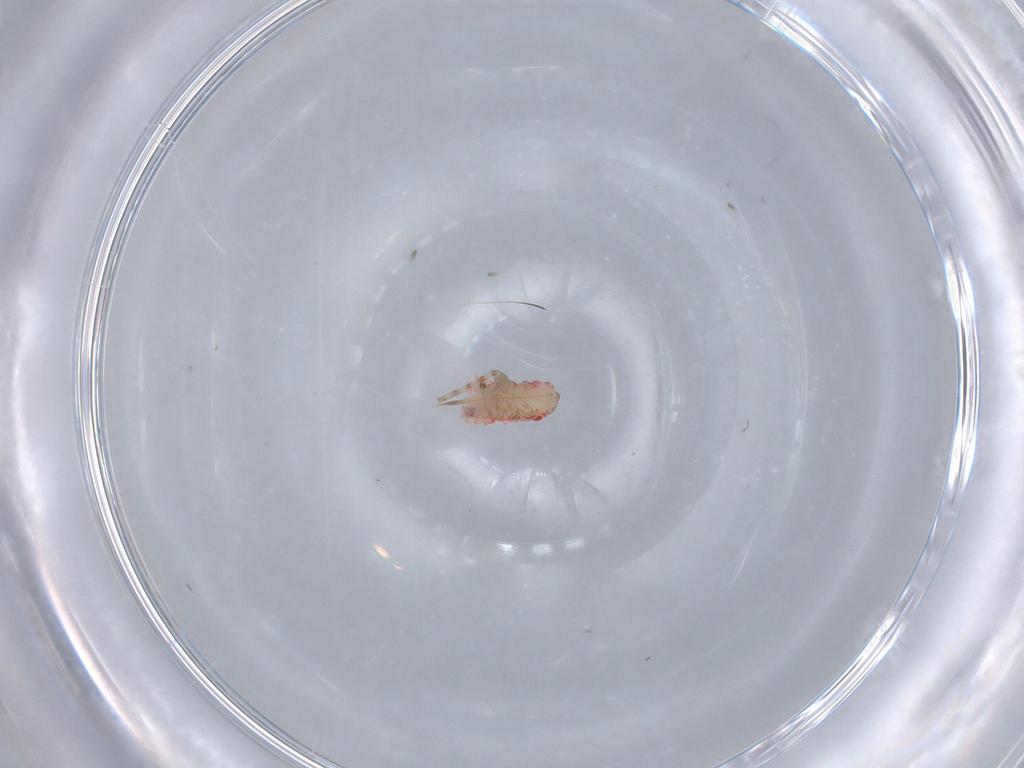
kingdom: Animalia
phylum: Arthropoda
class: Insecta
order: Hemiptera
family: Miridae
